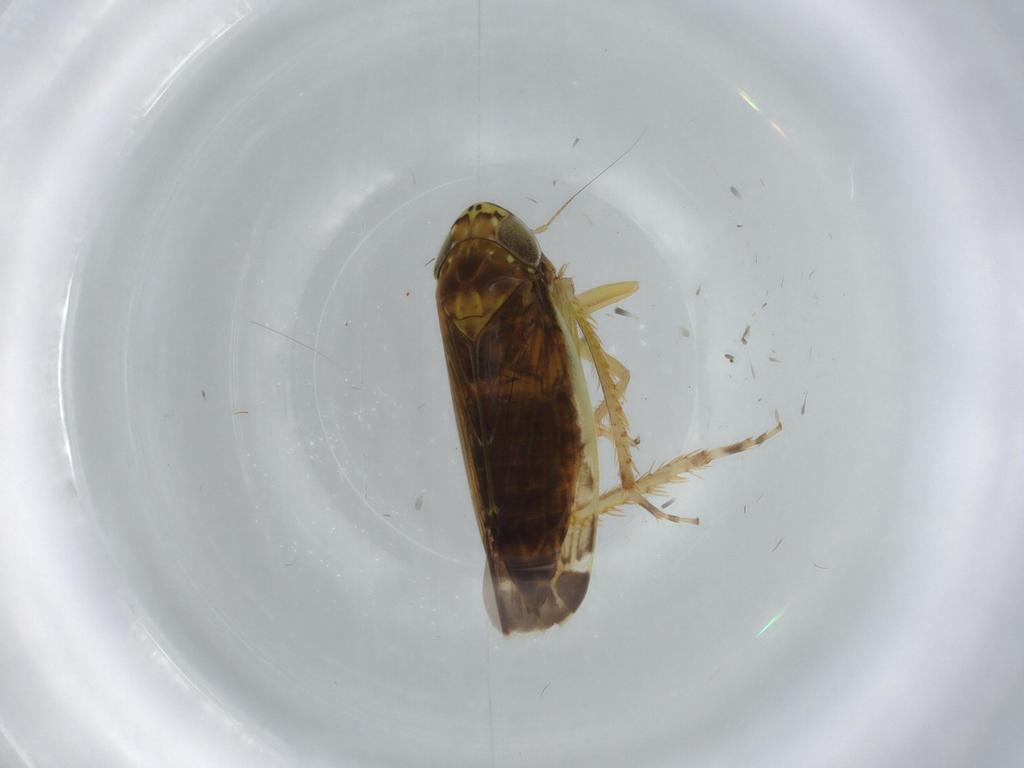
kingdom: Animalia
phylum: Arthropoda
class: Insecta
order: Hemiptera
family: Cicadellidae
